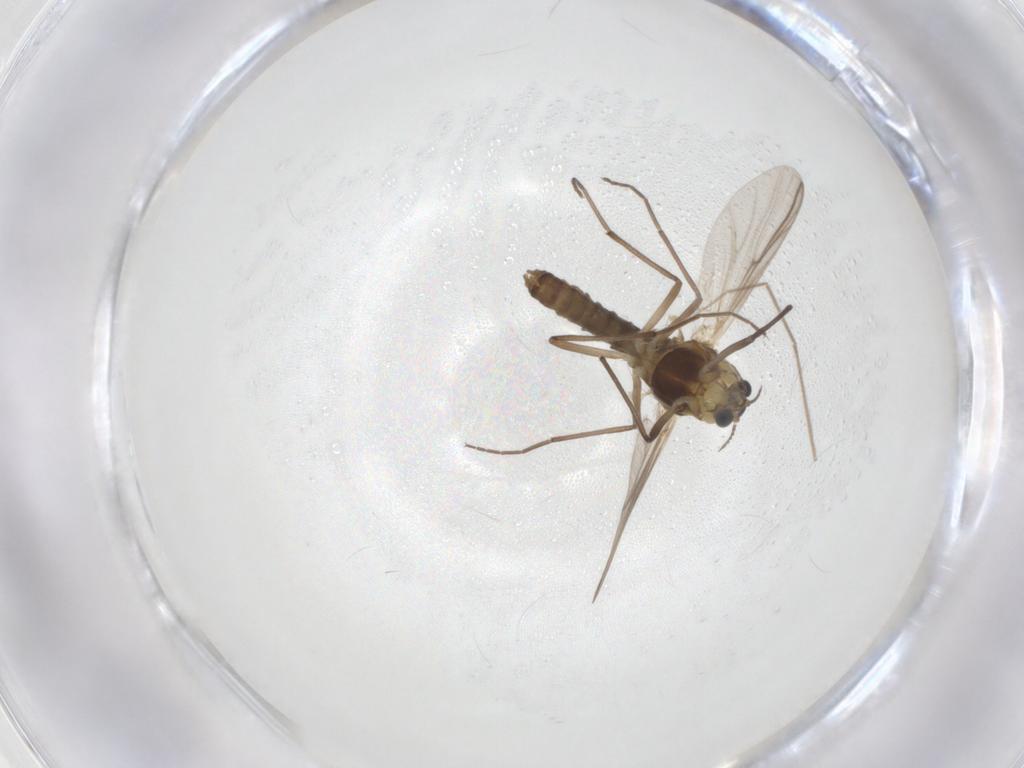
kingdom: Animalia
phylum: Arthropoda
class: Insecta
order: Diptera
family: Chironomidae
